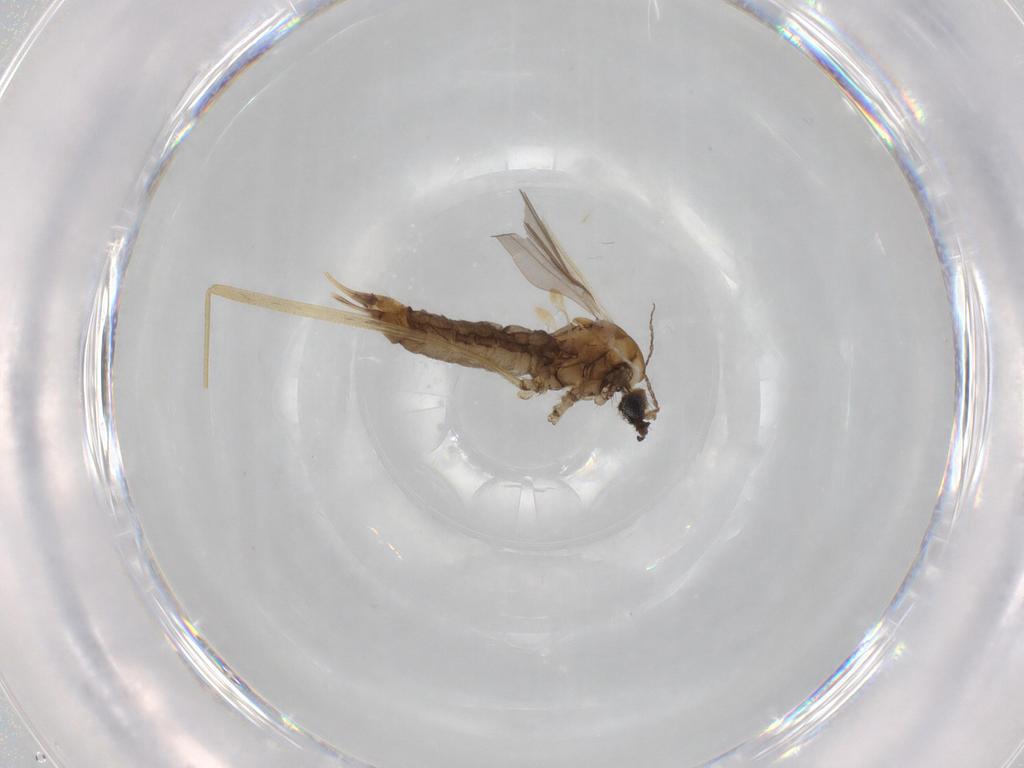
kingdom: Animalia
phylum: Arthropoda
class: Insecta
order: Diptera
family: Limoniidae
